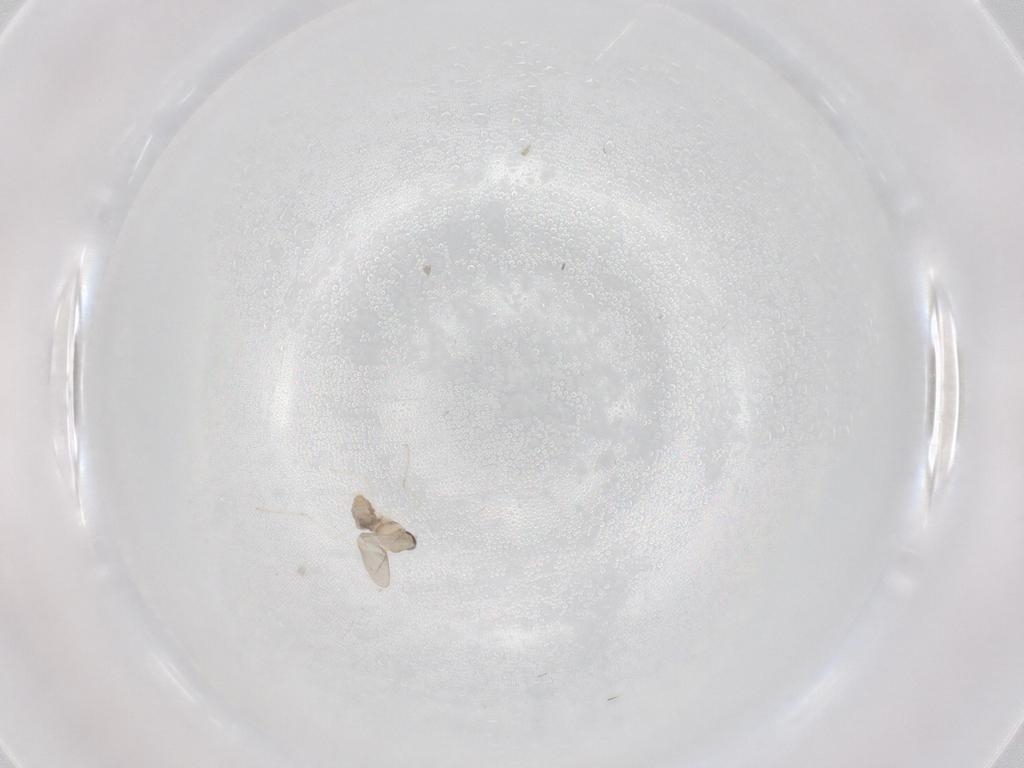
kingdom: Animalia
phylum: Arthropoda
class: Insecta
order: Diptera
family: Cecidomyiidae
